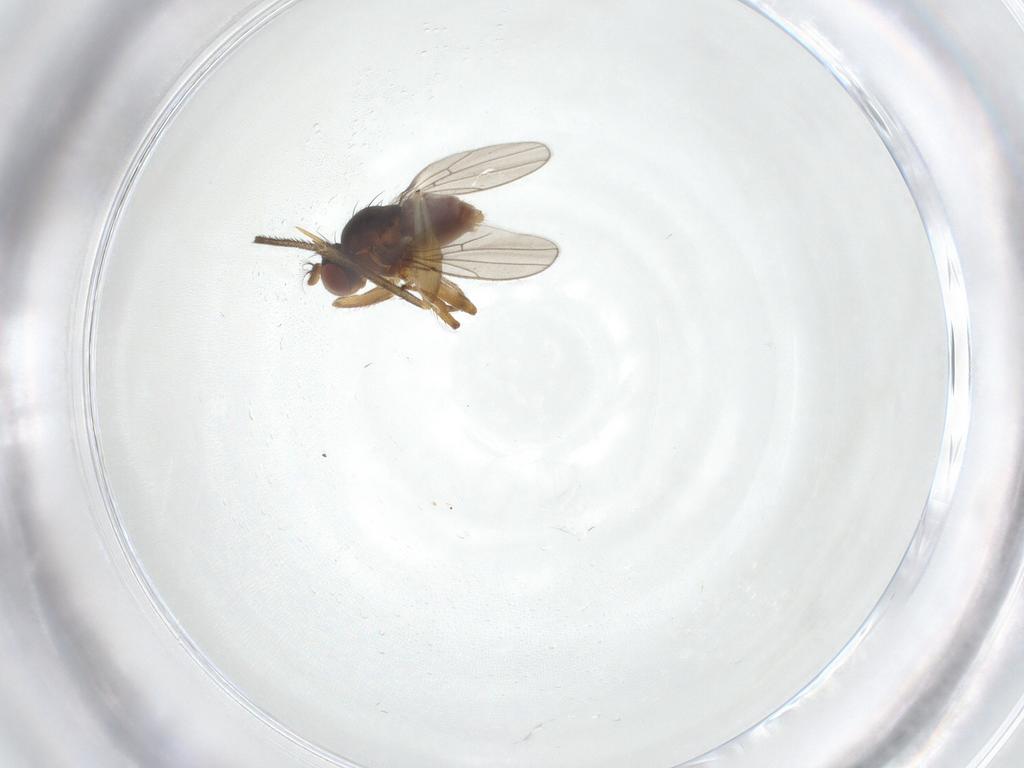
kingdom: Animalia
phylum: Arthropoda
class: Insecta
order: Diptera
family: Ephydridae
